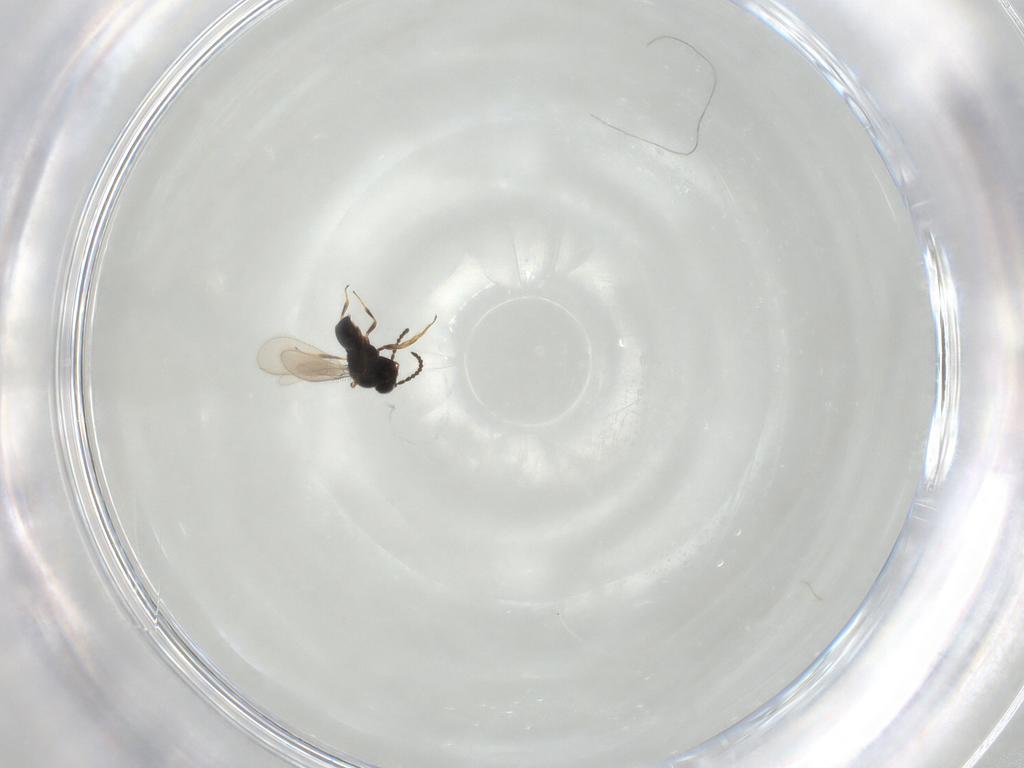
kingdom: Animalia
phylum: Arthropoda
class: Insecta
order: Hymenoptera
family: Scelionidae
